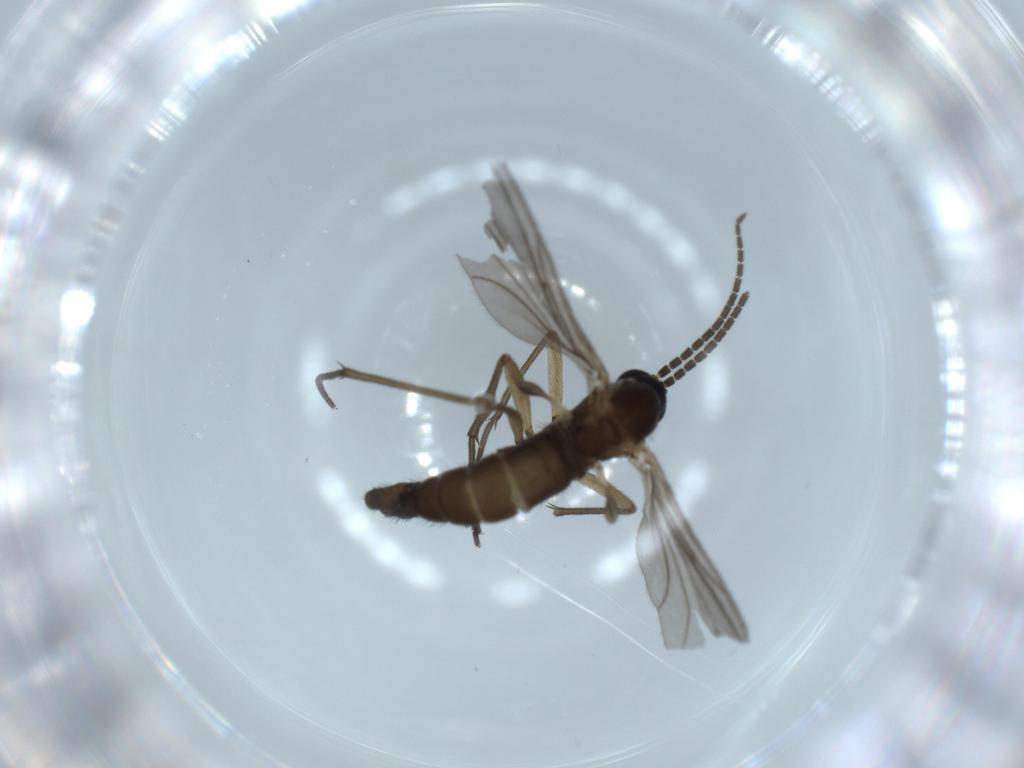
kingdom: Animalia
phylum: Arthropoda
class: Insecta
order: Diptera
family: Sciaridae
